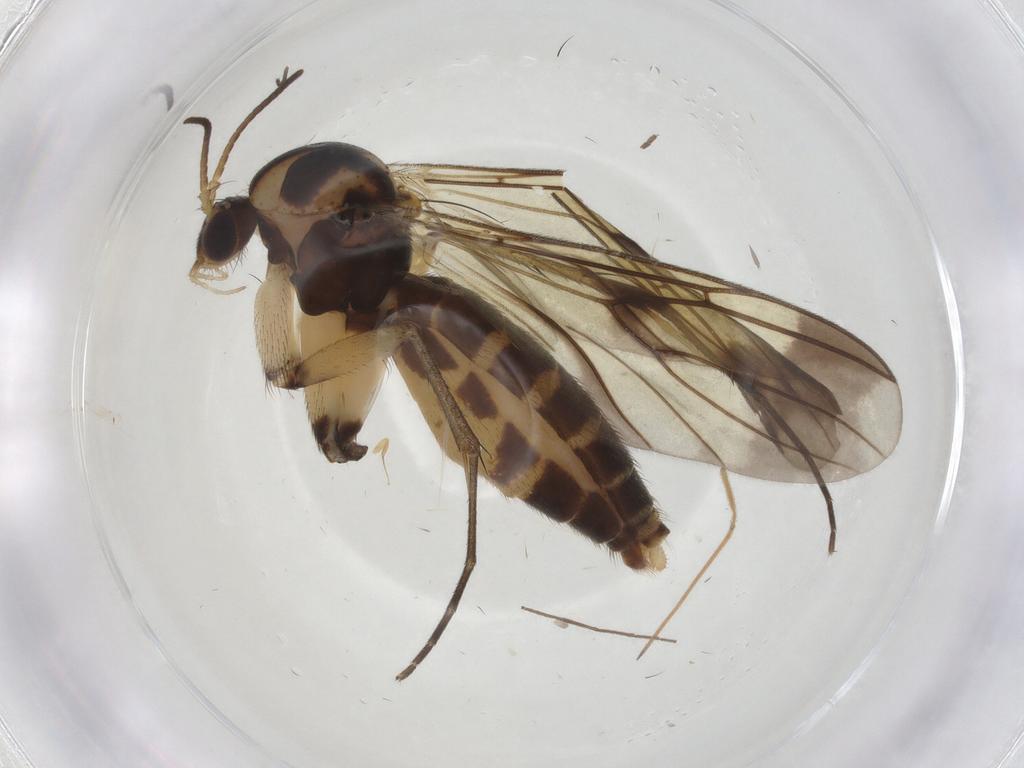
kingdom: Animalia
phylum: Arthropoda
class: Insecta
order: Diptera
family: Mycetophilidae
